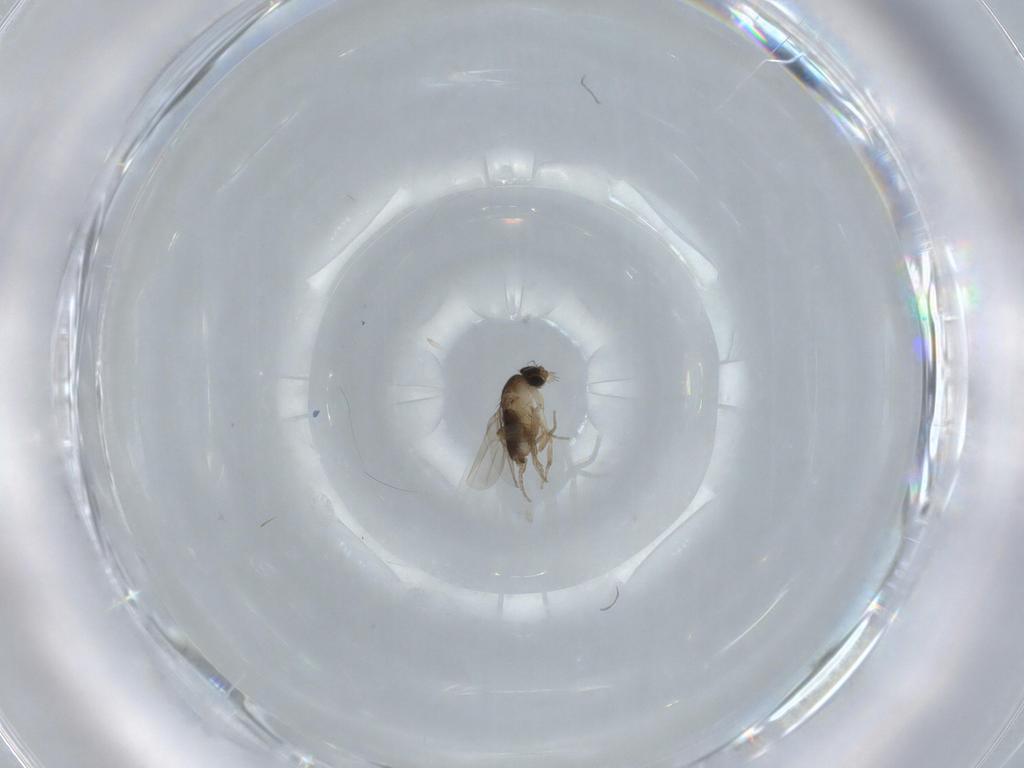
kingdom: Animalia
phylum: Arthropoda
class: Insecta
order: Diptera
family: Phoridae
